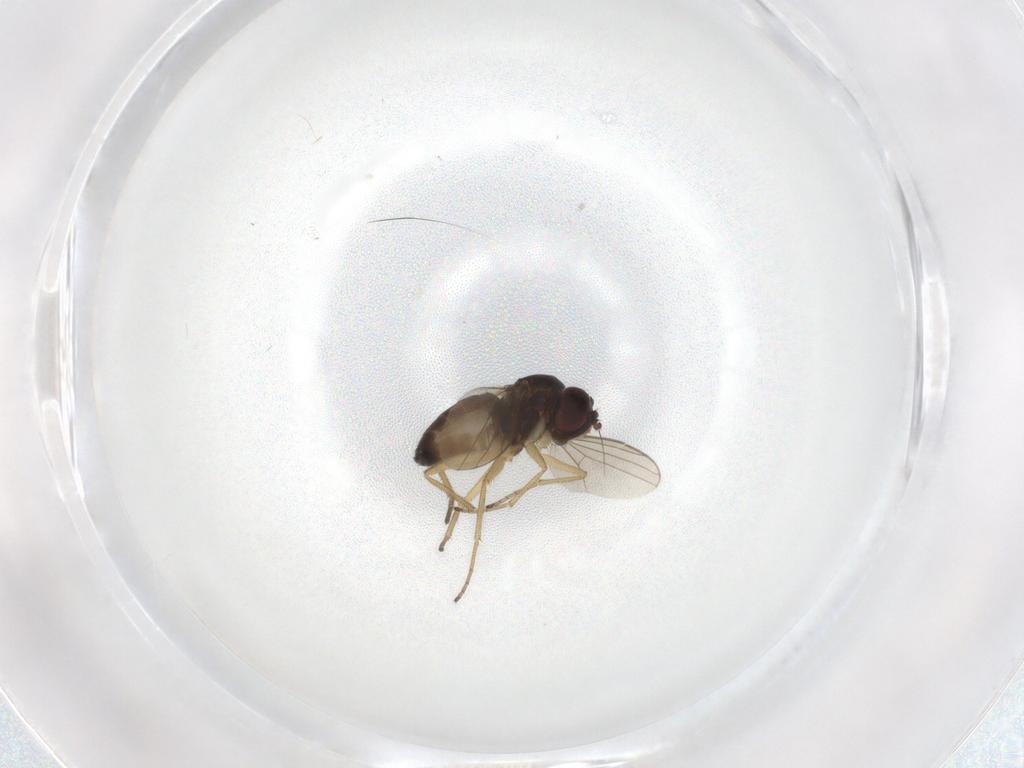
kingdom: Animalia
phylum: Arthropoda
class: Insecta
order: Diptera
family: Dolichopodidae
